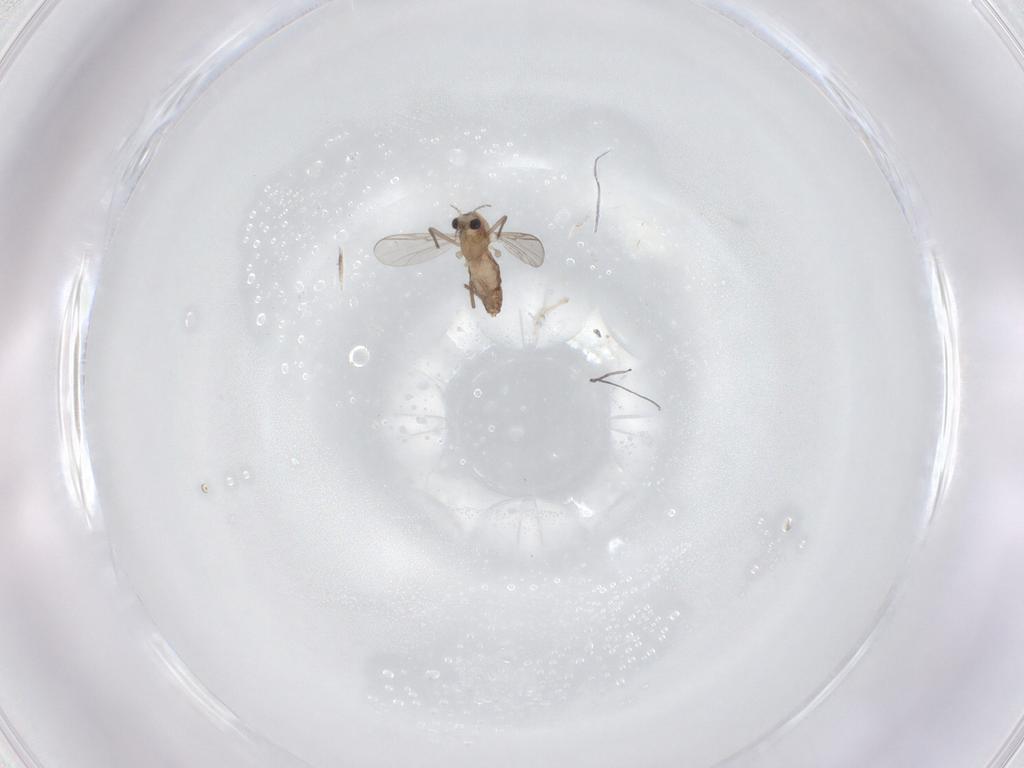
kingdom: Animalia
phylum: Arthropoda
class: Insecta
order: Diptera
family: Chironomidae
